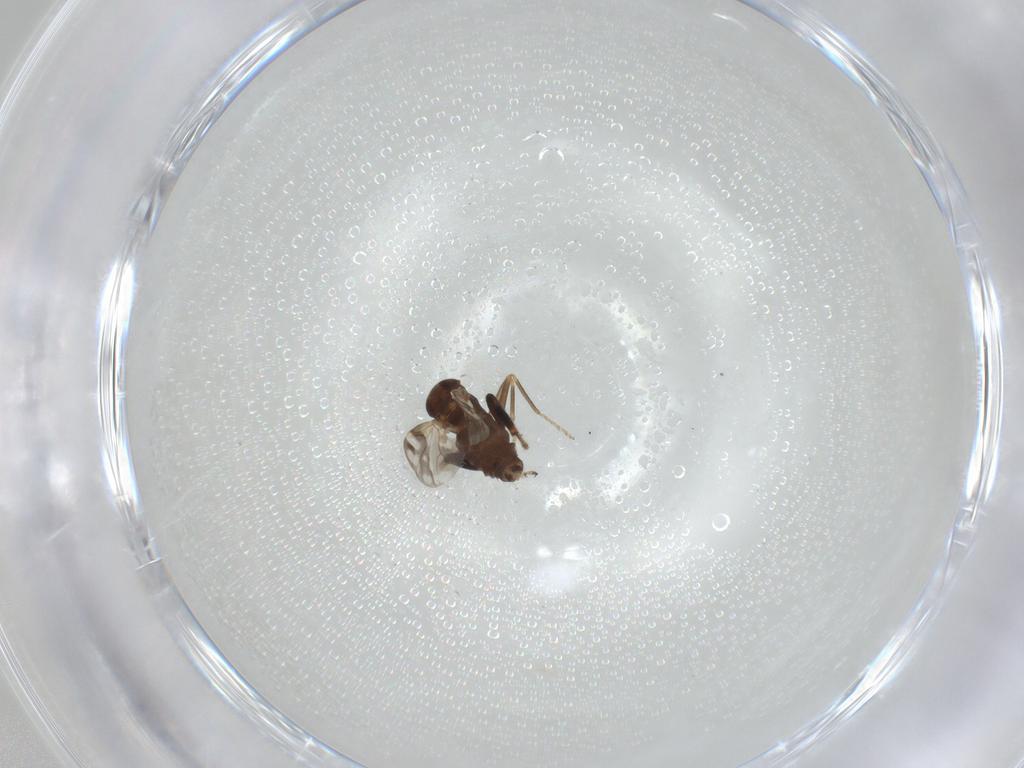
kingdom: Animalia
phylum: Arthropoda
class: Insecta
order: Diptera
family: Ceratopogonidae
